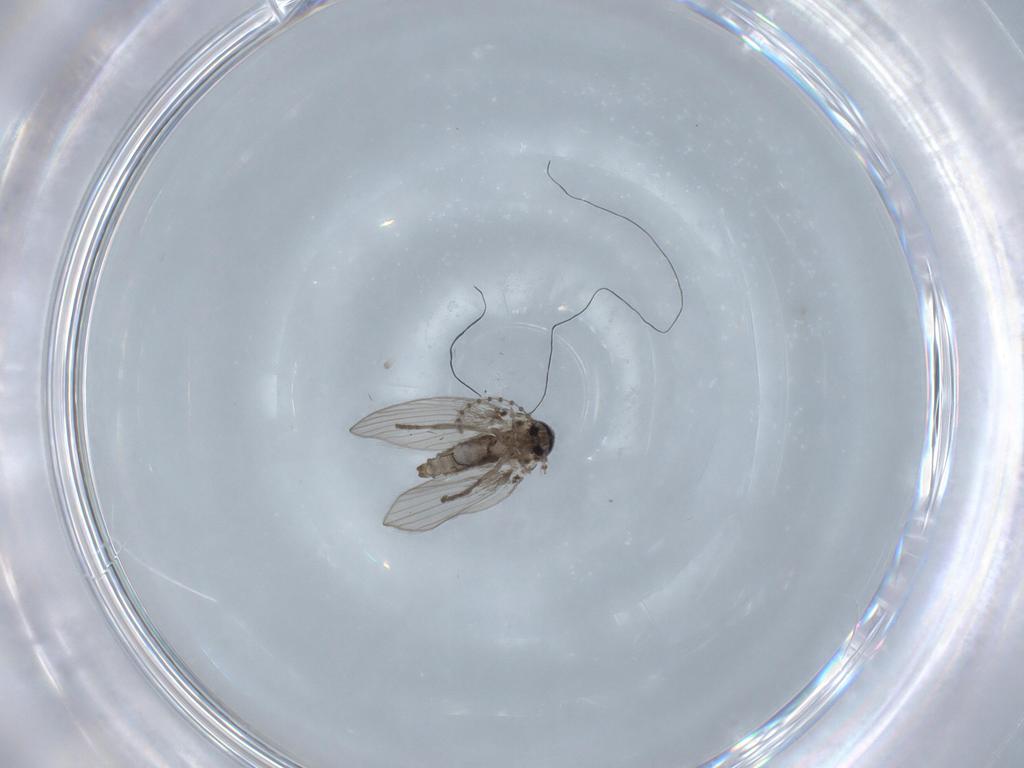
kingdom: Animalia
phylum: Arthropoda
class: Insecta
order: Diptera
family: Psychodidae
